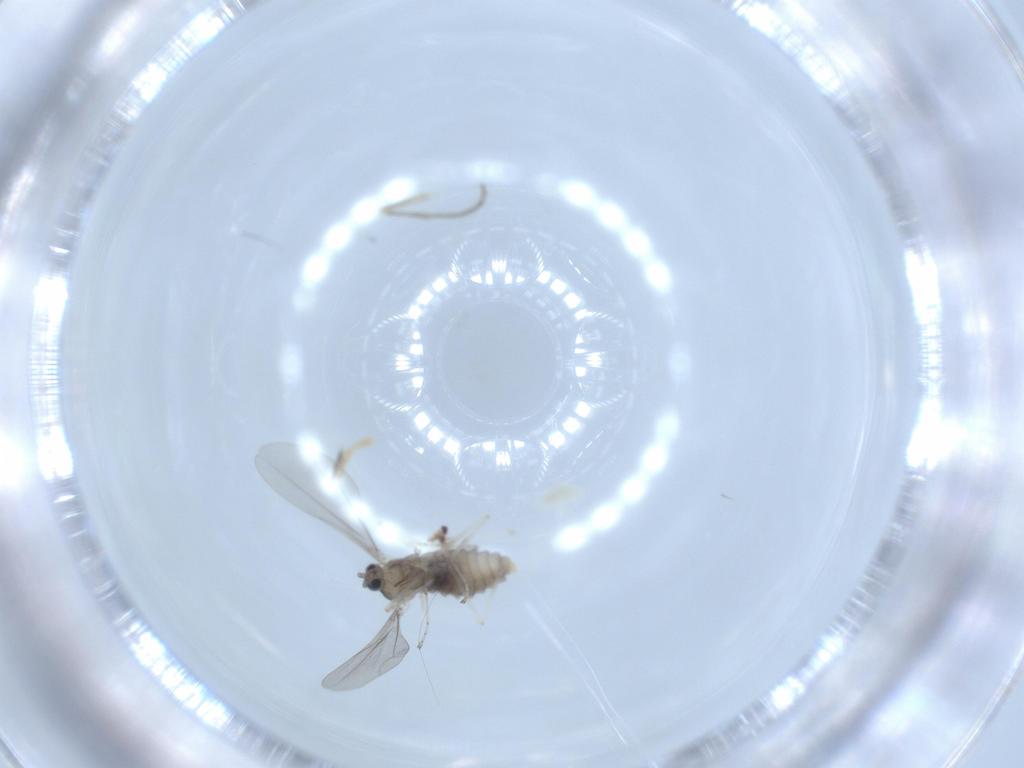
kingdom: Animalia
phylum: Arthropoda
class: Insecta
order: Diptera
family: Psychodidae
